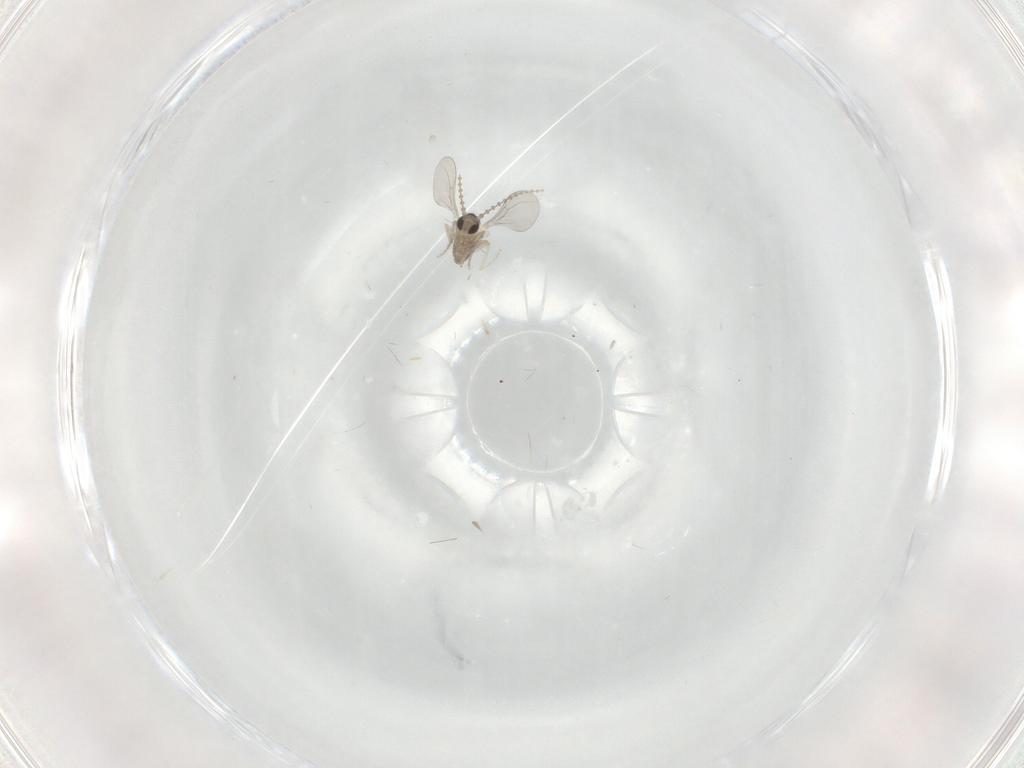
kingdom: Animalia
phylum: Arthropoda
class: Insecta
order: Diptera
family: Cecidomyiidae
